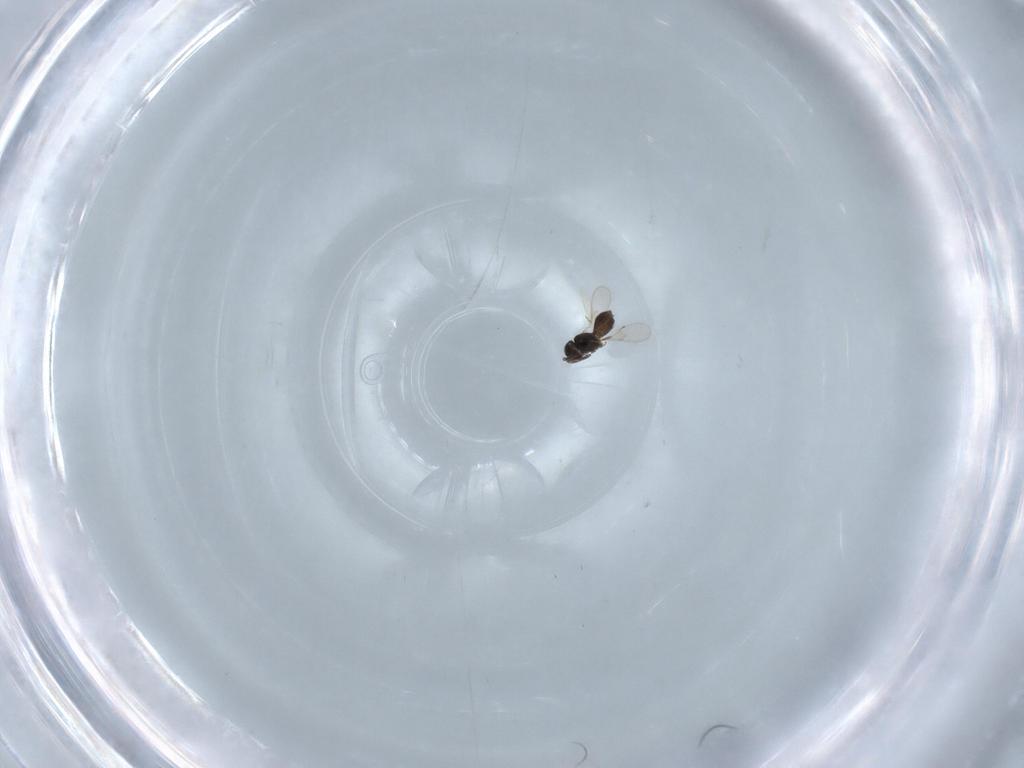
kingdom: Animalia
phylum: Arthropoda
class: Insecta
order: Hymenoptera
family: Scelionidae
